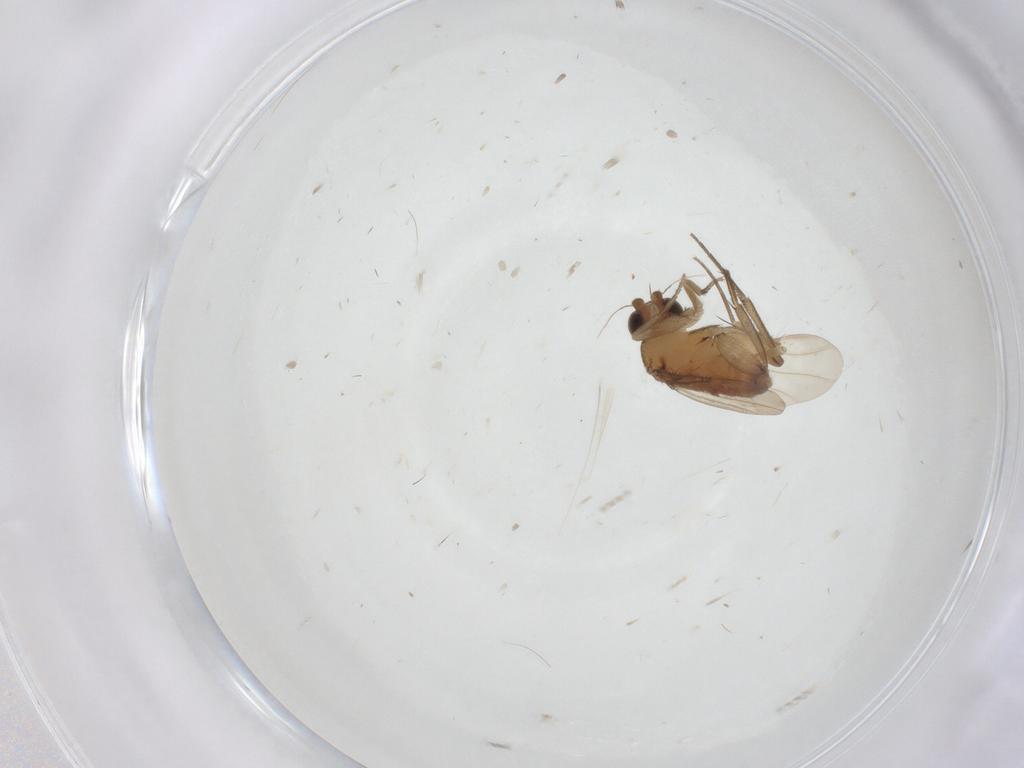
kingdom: Animalia
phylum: Arthropoda
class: Insecta
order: Diptera
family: Phoridae
